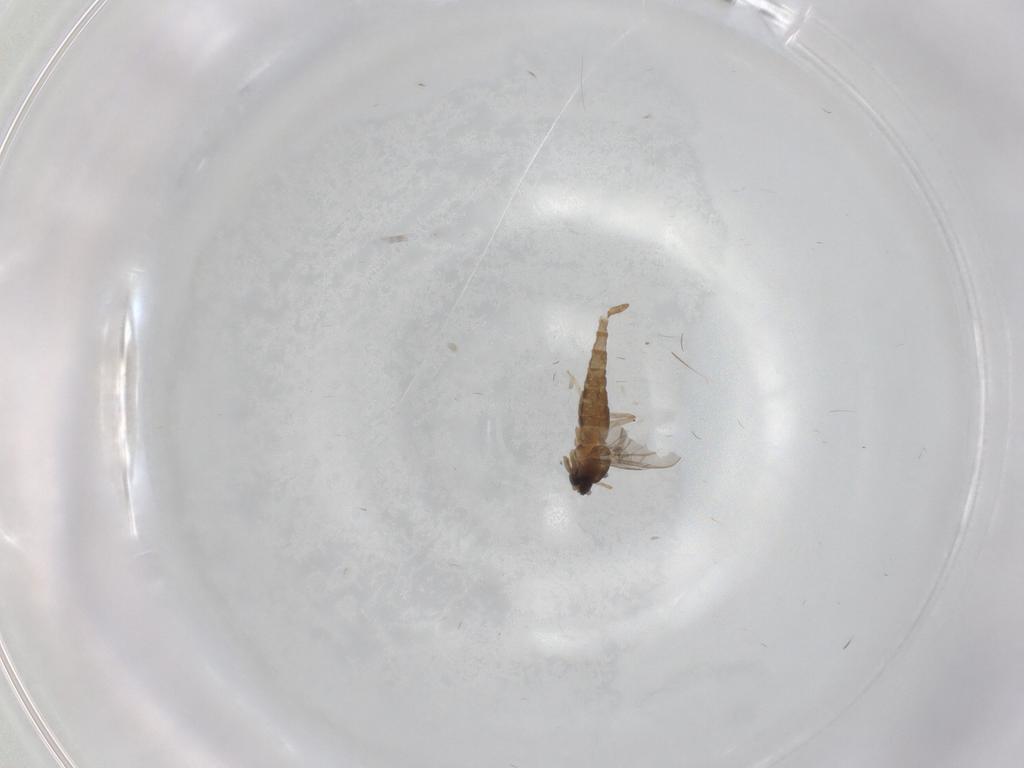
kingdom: Animalia
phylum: Arthropoda
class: Insecta
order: Diptera
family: Cecidomyiidae
